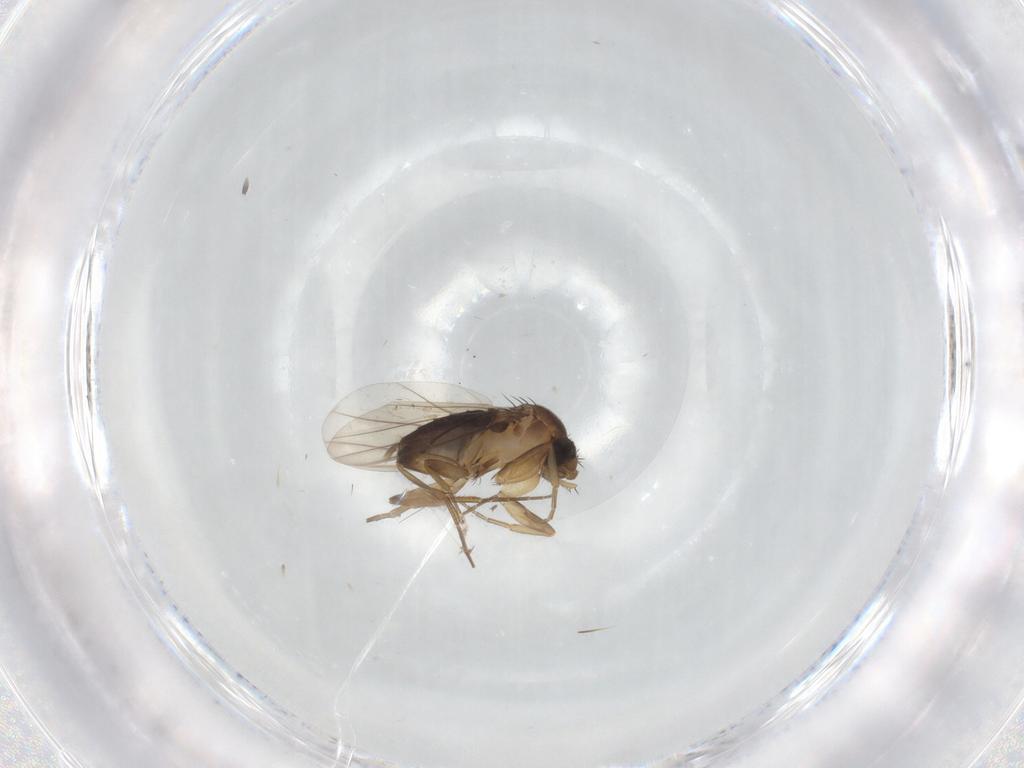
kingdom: Animalia
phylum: Arthropoda
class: Insecta
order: Diptera
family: Phoridae
